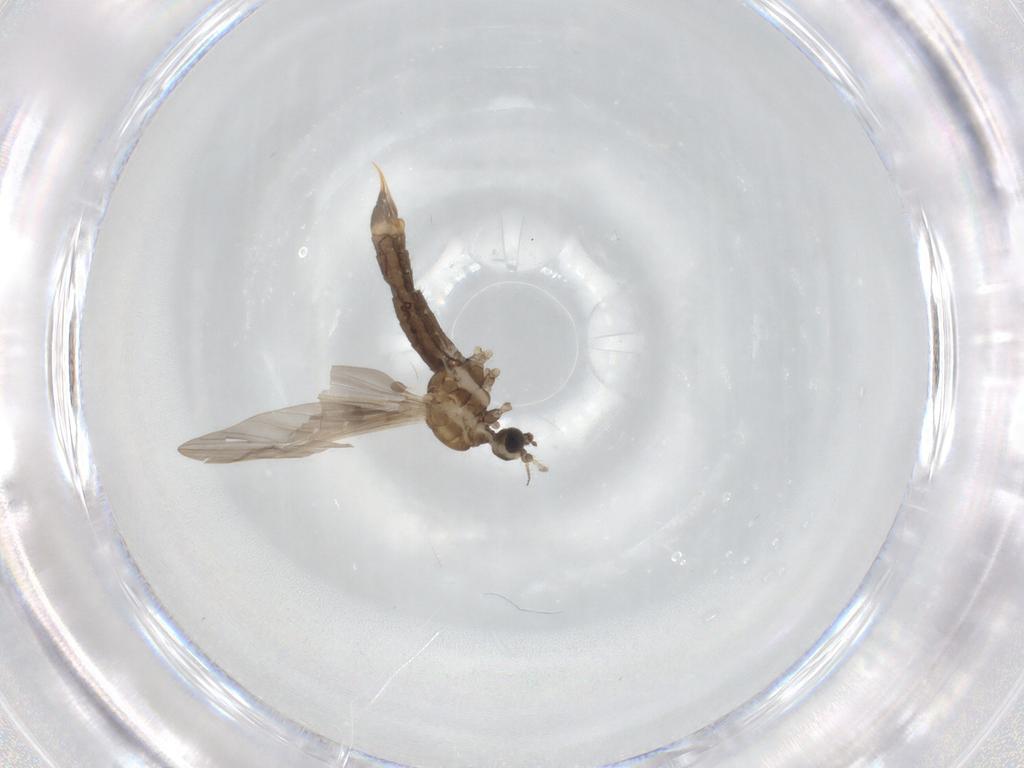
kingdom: Animalia
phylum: Arthropoda
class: Insecta
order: Diptera
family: Limoniidae
